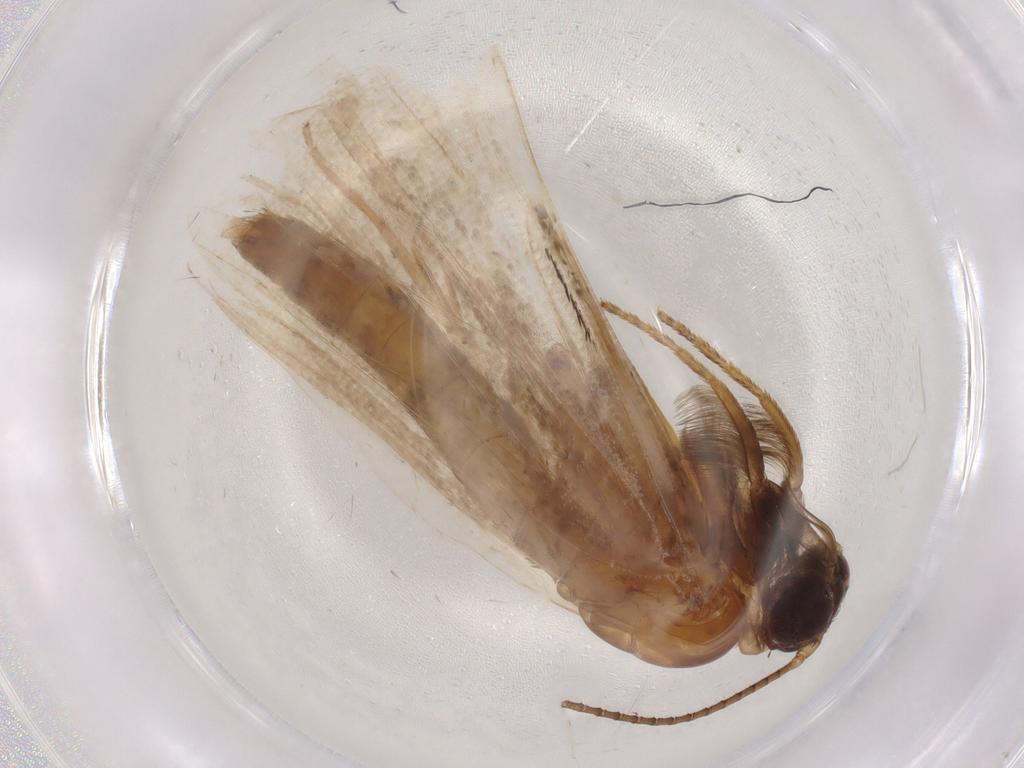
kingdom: Animalia
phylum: Arthropoda
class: Insecta
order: Lepidoptera
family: Lecithoceridae
